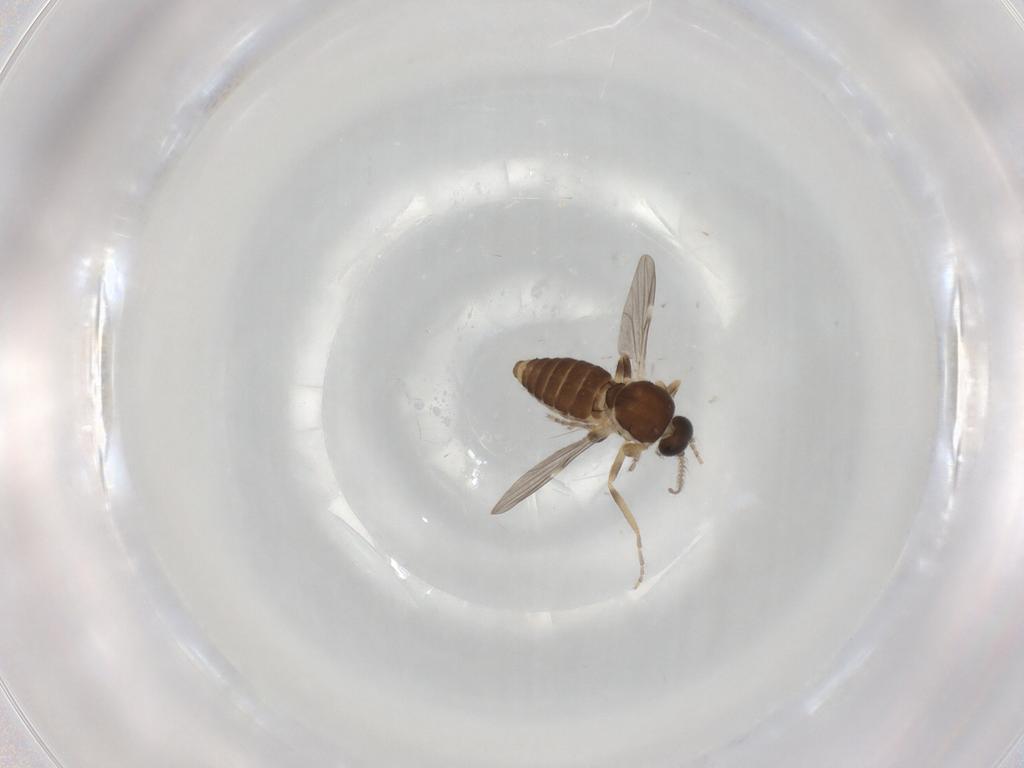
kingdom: Animalia
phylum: Arthropoda
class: Insecta
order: Diptera
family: Ceratopogonidae
